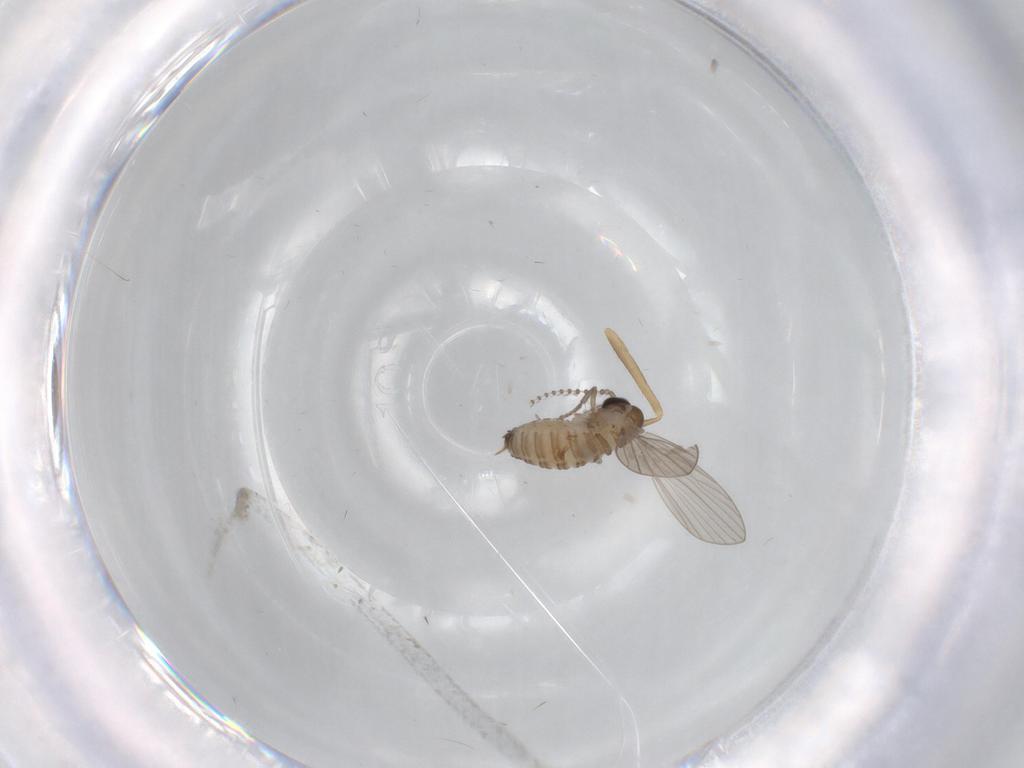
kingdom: Animalia
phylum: Arthropoda
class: Insecta
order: Diptera
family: Psychodidae
